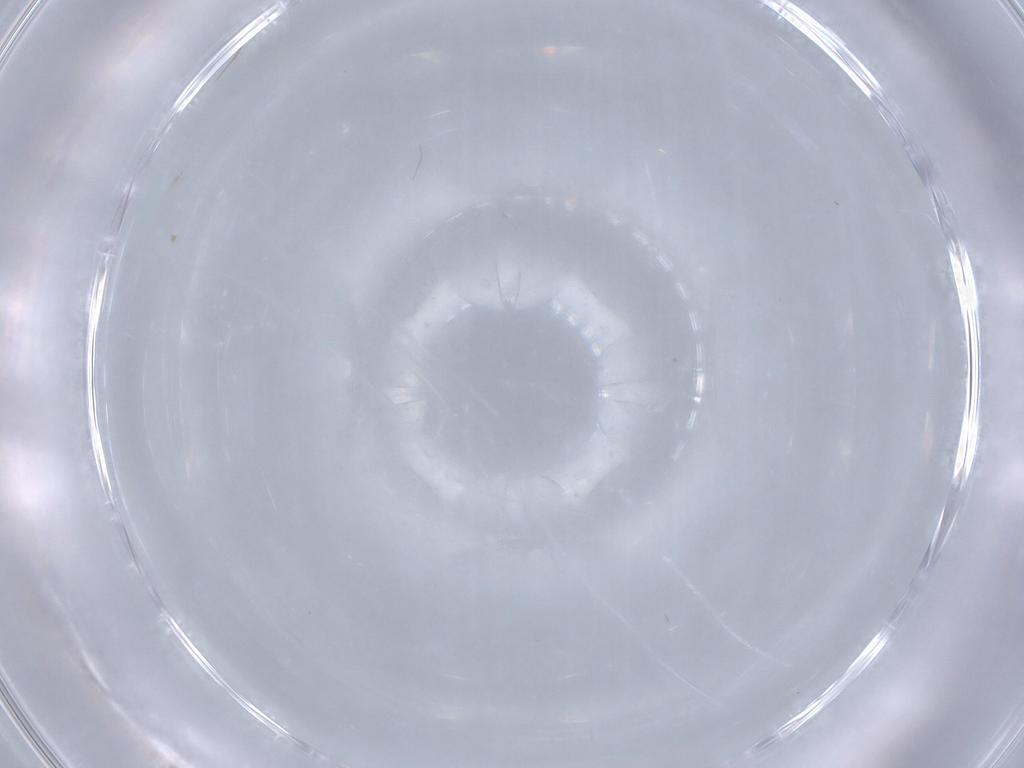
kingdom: Animalia
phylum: Arthropoda
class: Insecta
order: Diptera
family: Chironomidae
